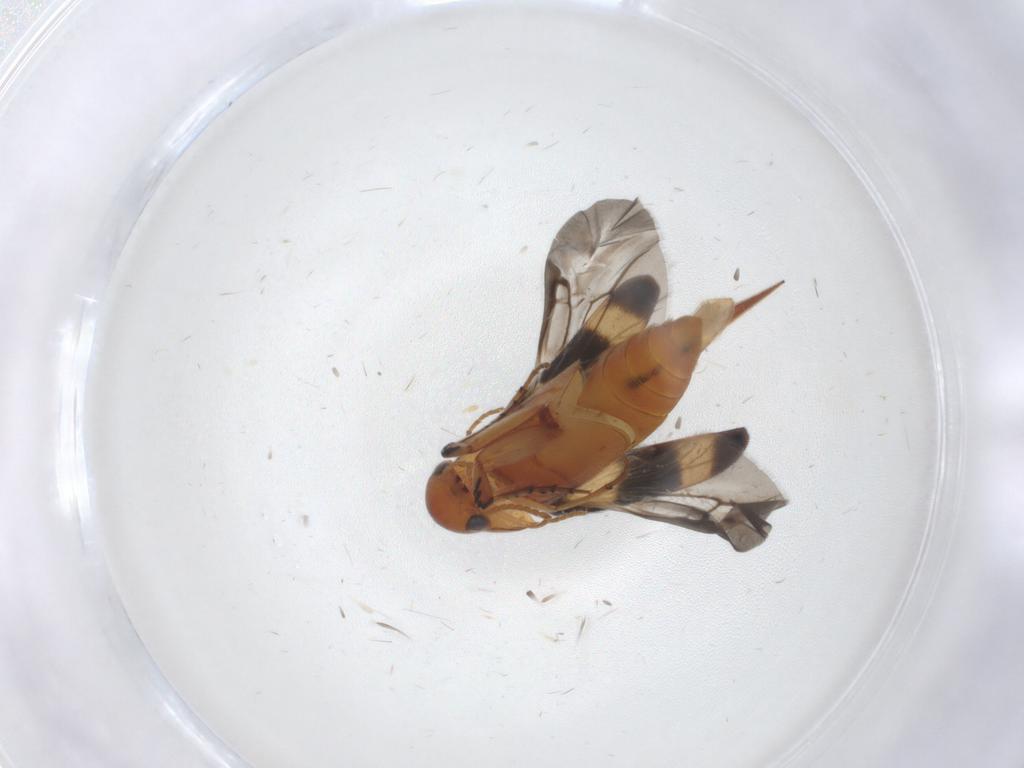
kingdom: Animalia
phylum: Arthropoda
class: Insecta
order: Coleoptera
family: Mordellidae
